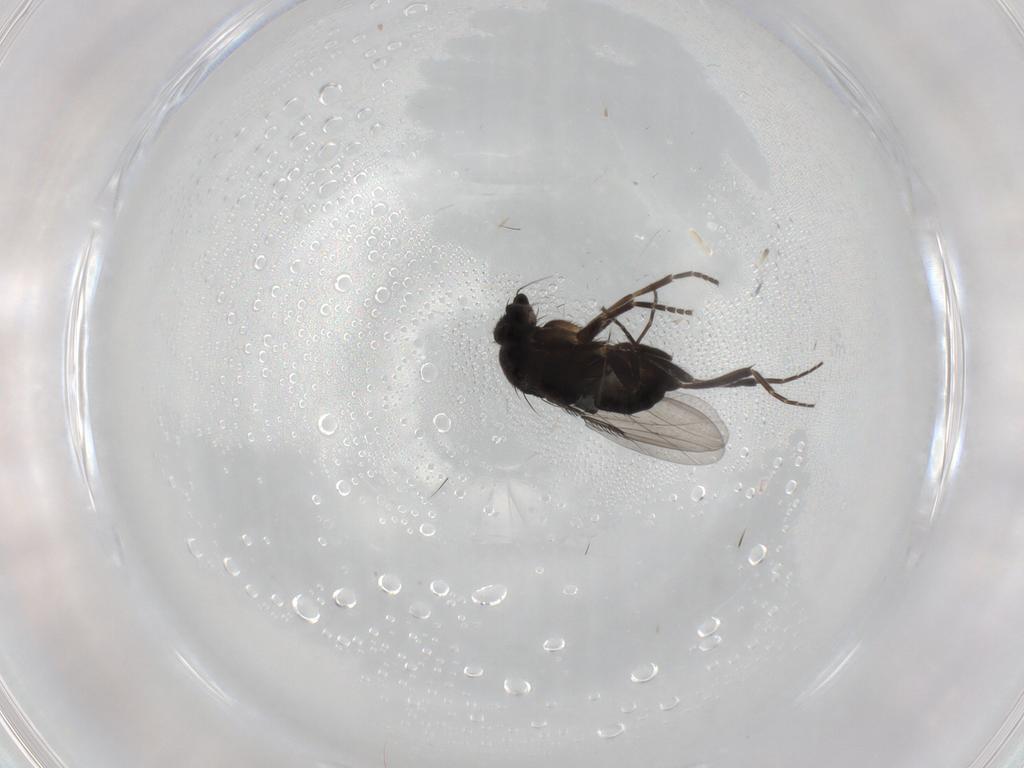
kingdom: Animalia
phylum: Arthropoda
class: Insecta
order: Diptera
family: Phoridae
